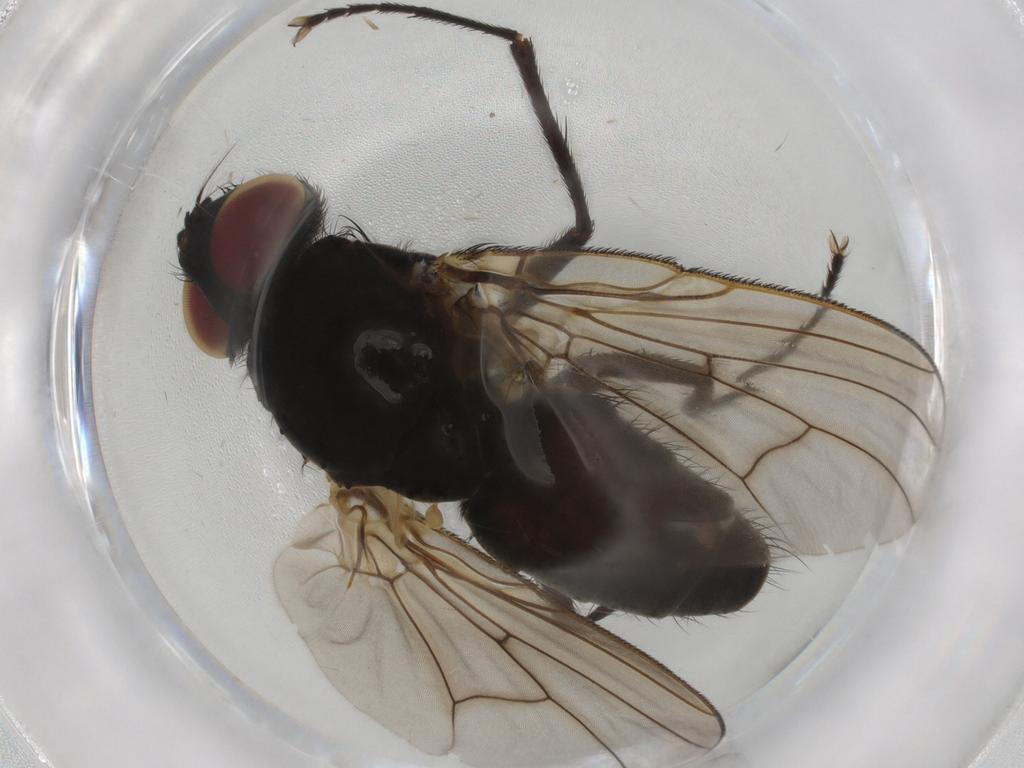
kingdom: Animalia
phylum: Arthropoda
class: Insecta
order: Diptera
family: Muscidae
